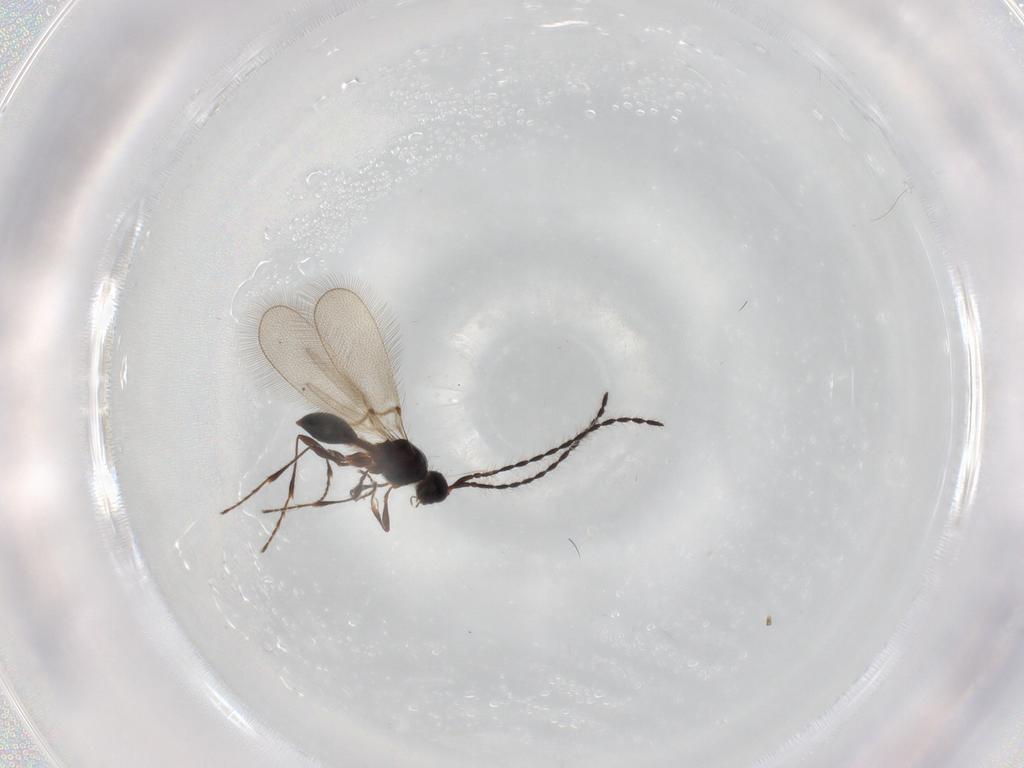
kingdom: Animalia
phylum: Arthropoda
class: Insecta
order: Hymenoptera
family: Diapriidae
